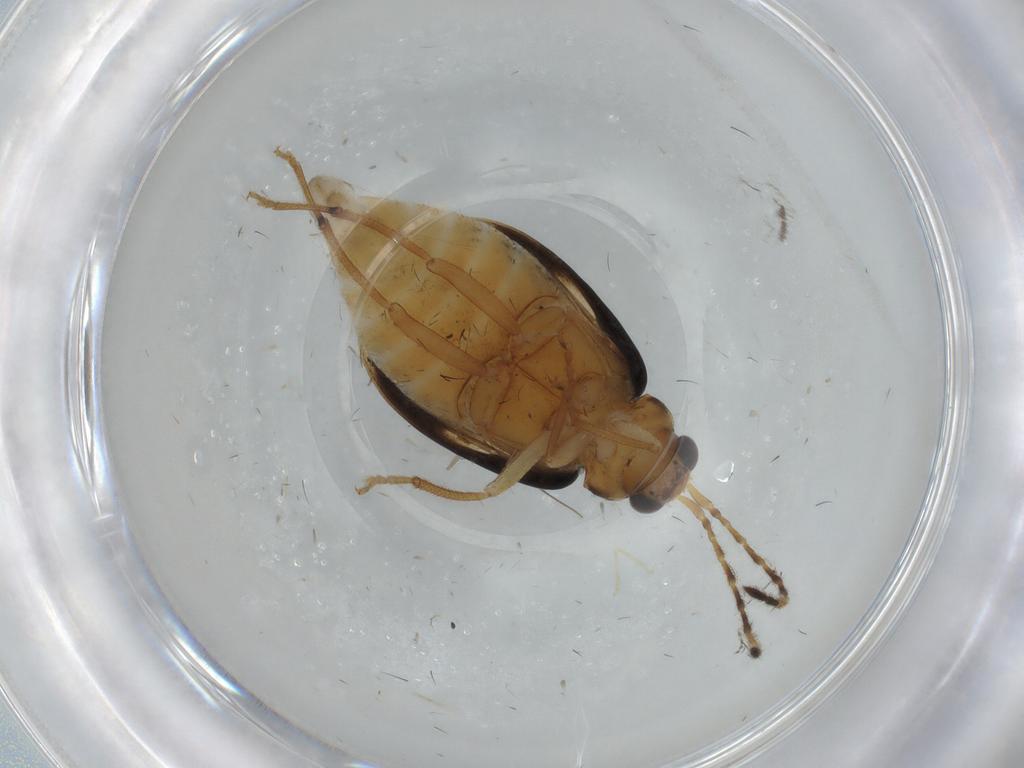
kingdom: Animalia
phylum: Arthropoda
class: Insecta
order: Coleoptera
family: Chrysomelidae
